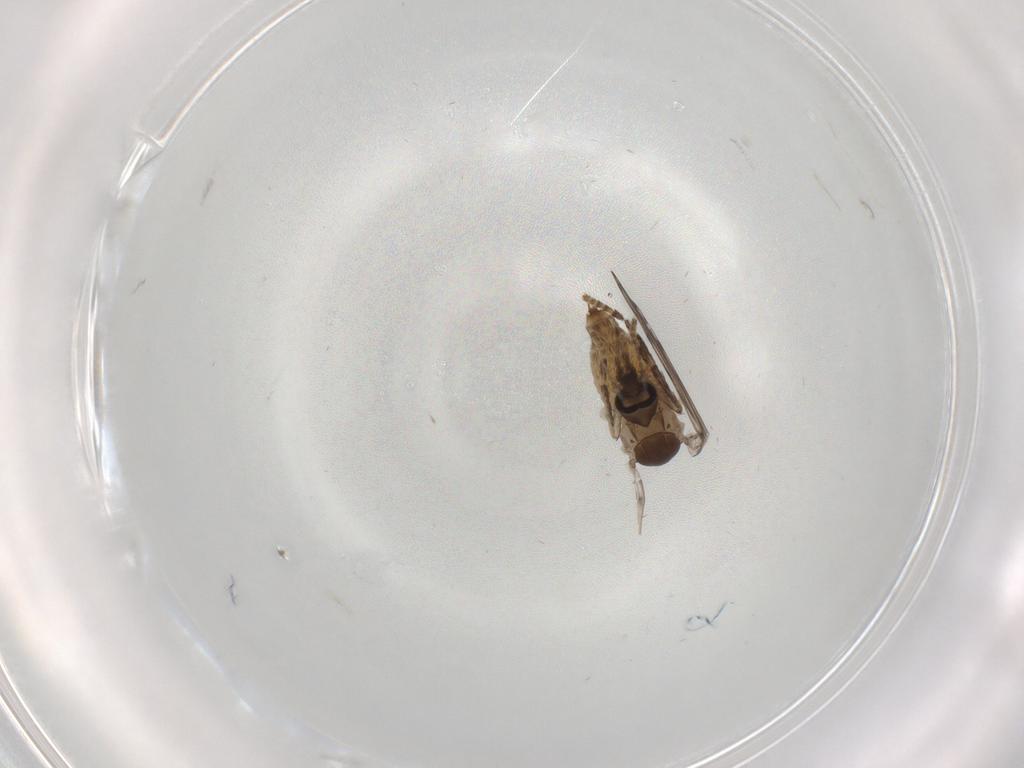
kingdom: Animalia
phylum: Arthropoda
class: Insecta
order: Diptera
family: Psychodidae
